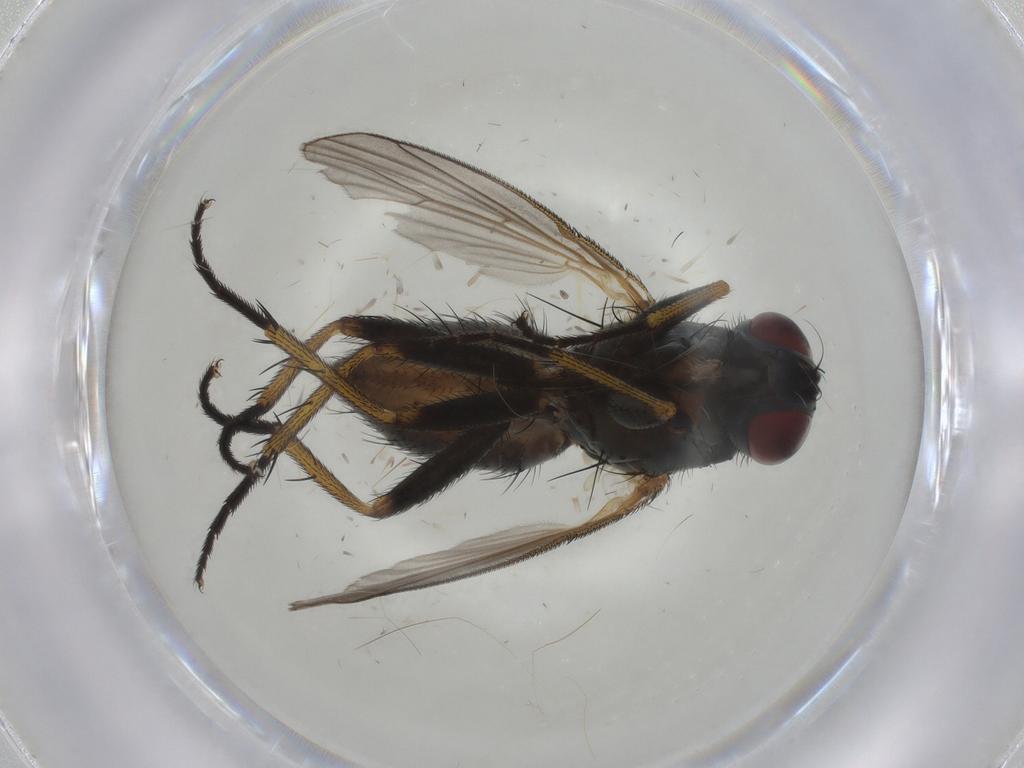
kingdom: Animalia
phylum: Arthropoda
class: Insecta
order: Diptera
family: Muscidae
